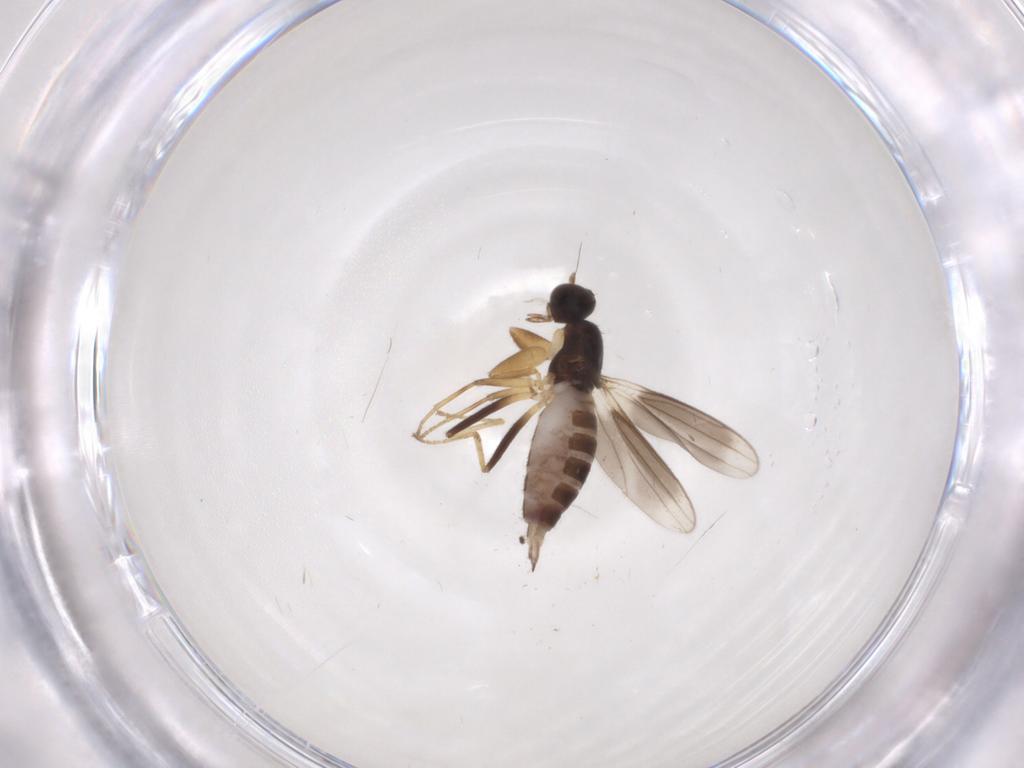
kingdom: Animalia
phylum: Arthropoda
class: Insecta
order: Diptera
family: Hybotidae
